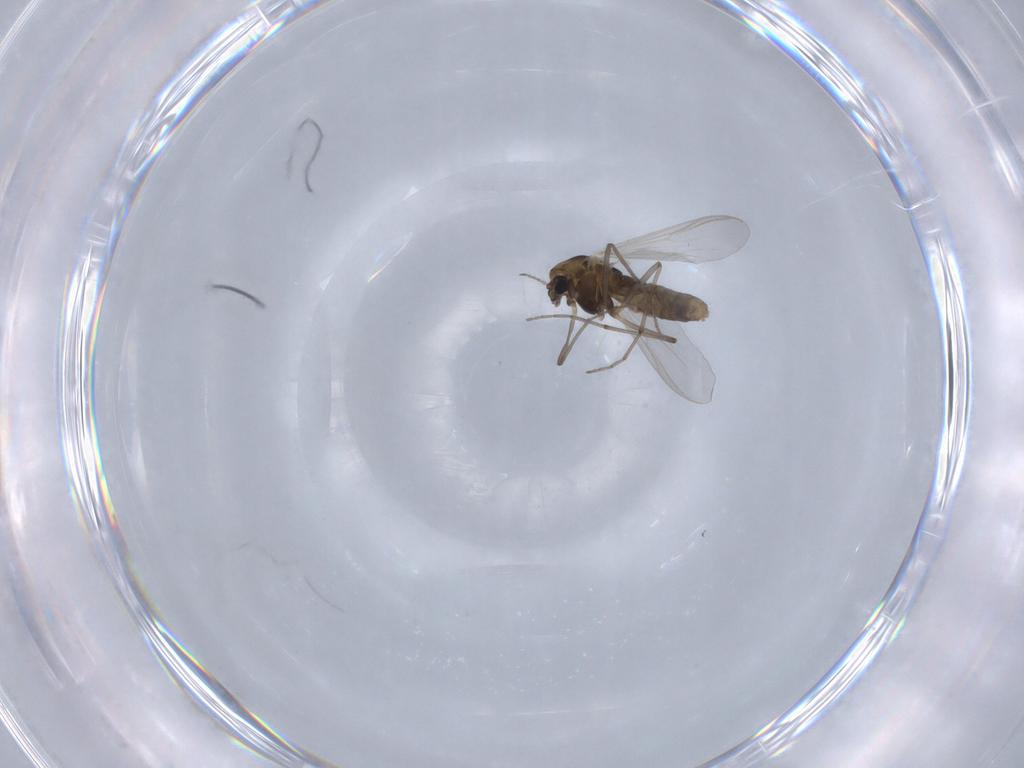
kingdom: Animalia
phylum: Arthropoda
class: Insecta
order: Diptera
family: Chironomidae
